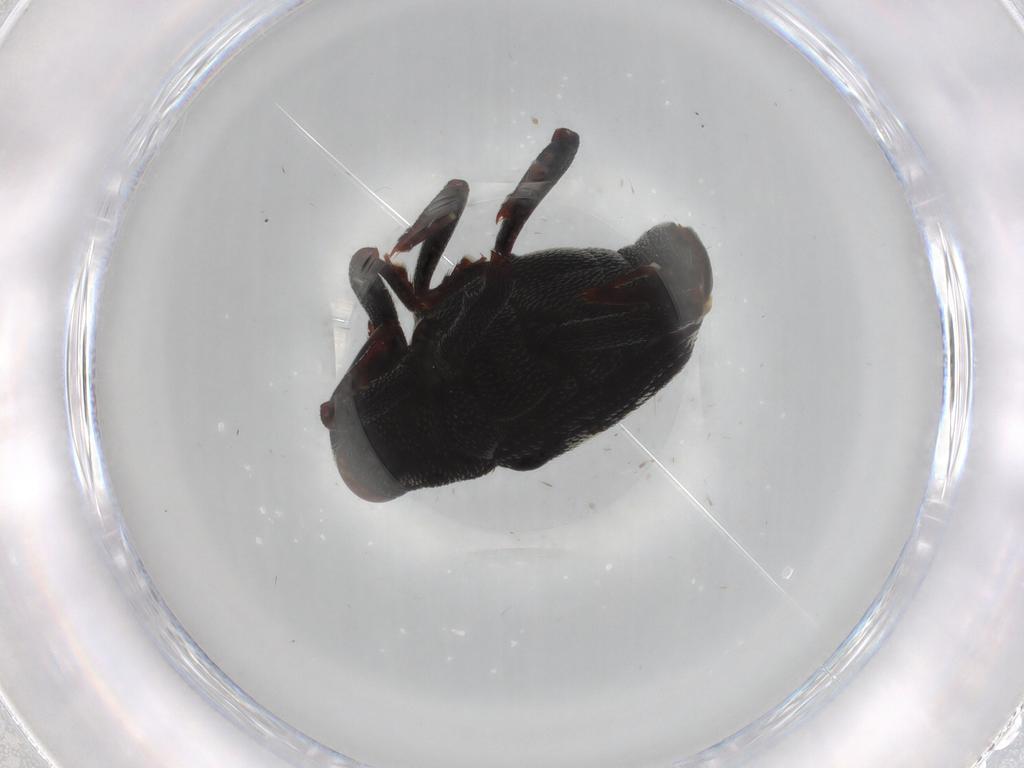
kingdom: Animalia
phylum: Arthropoda
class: Insecta
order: Coleoptera
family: Curculionidae
